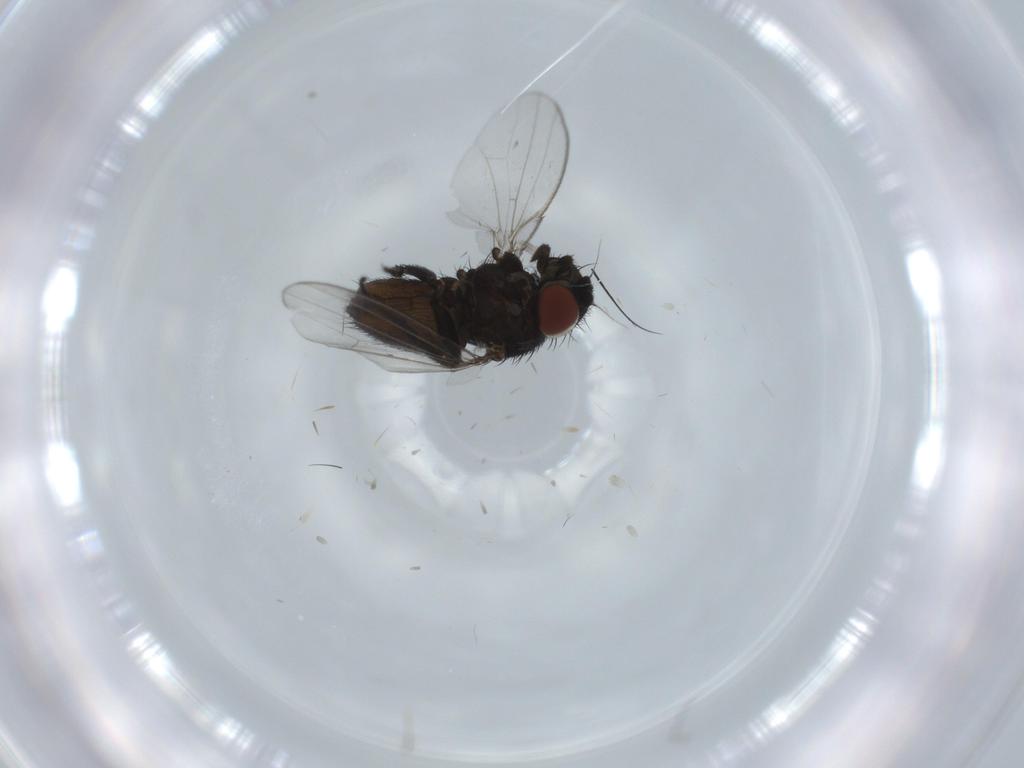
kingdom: Animalia
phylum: Arthropoda
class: Insecta
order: Diptera
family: Milichiidae
